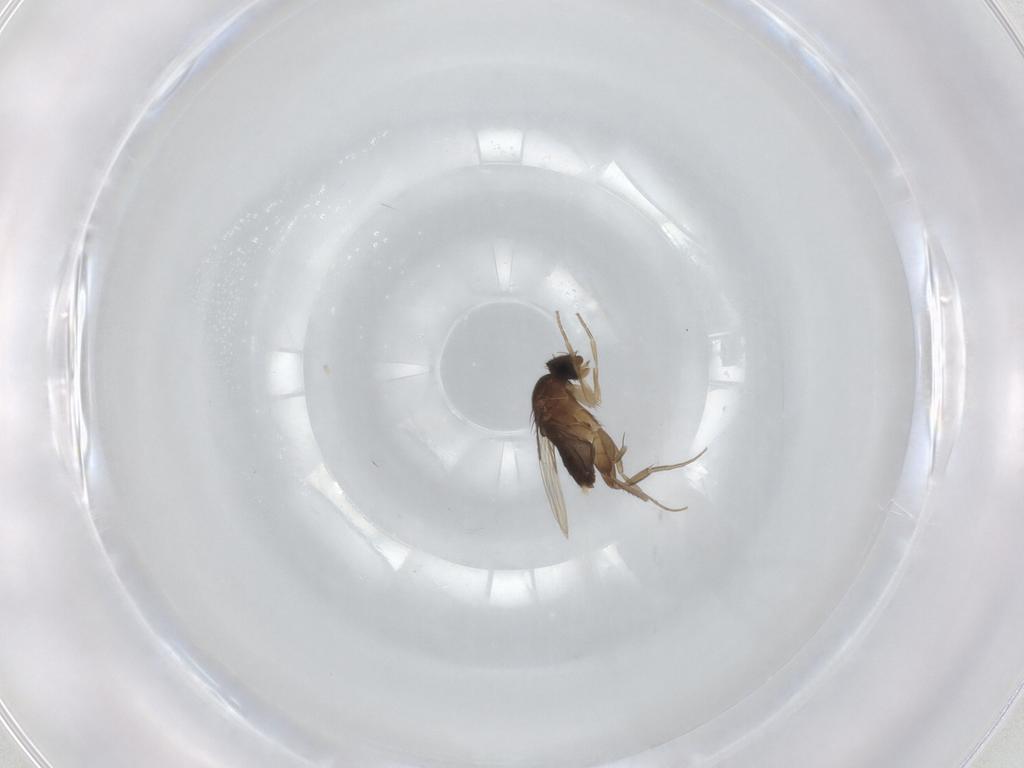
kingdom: Animalia
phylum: Arthropoda
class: Insecta
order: Diptera
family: Phoridae
